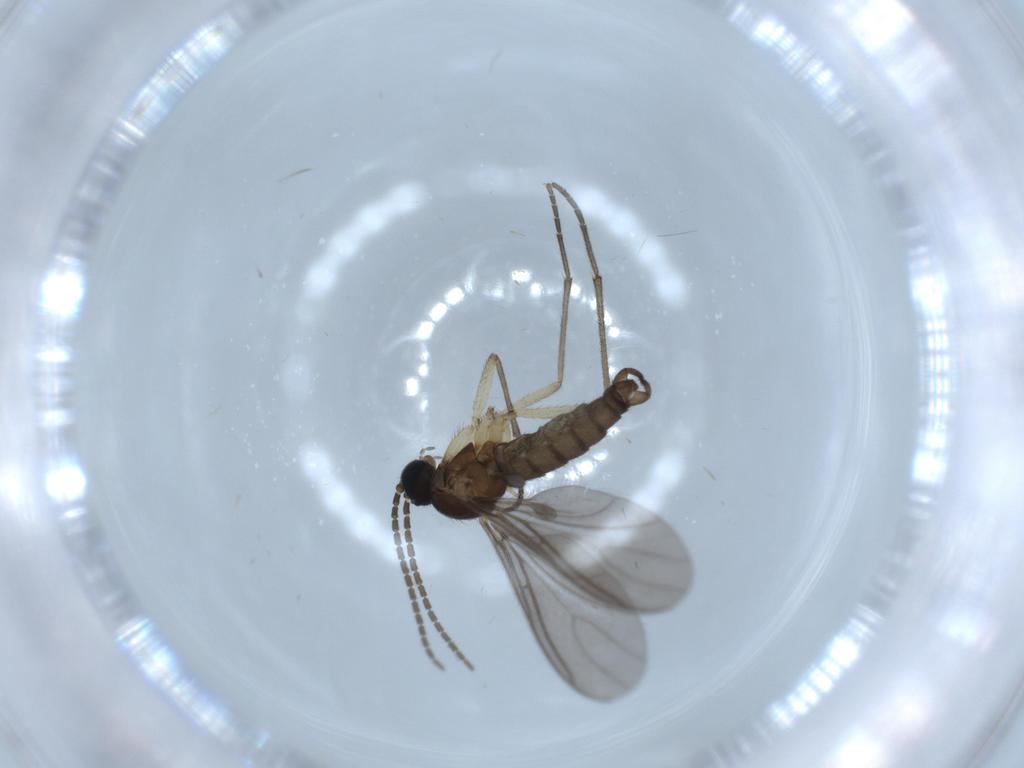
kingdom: Animalia
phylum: Arthropoda
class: Insecta
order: Diptera
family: Sciaridae
